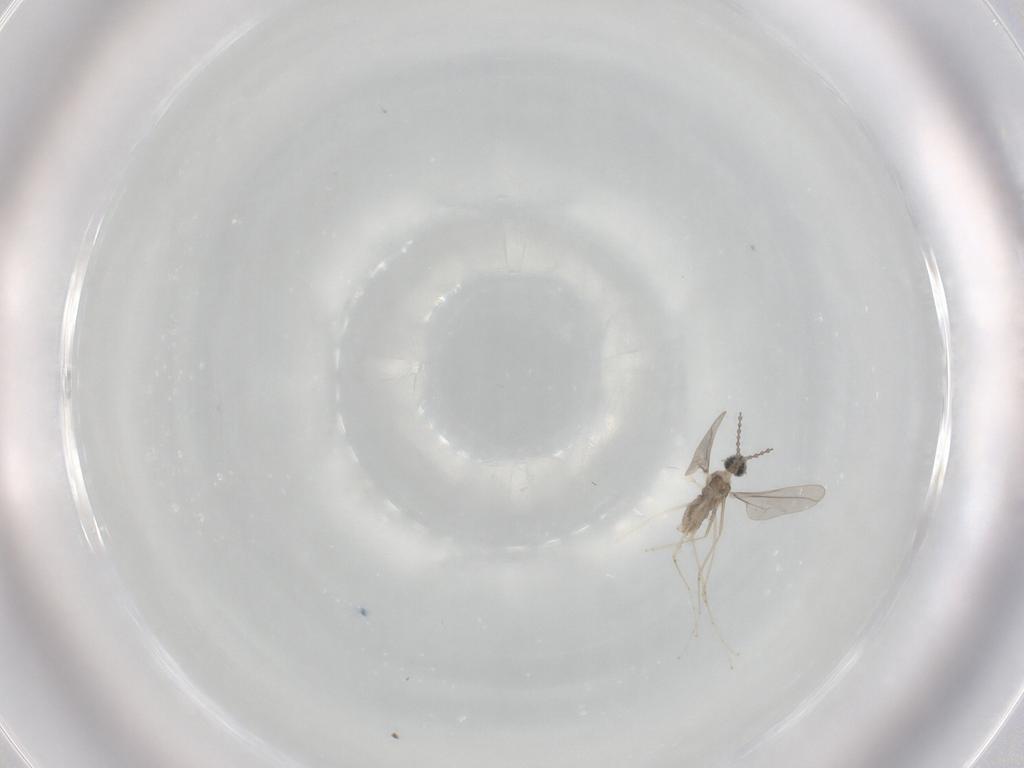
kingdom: Animalia
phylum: Arthropoda
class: Insecta
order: Diptera
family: Cecidomyiidae
